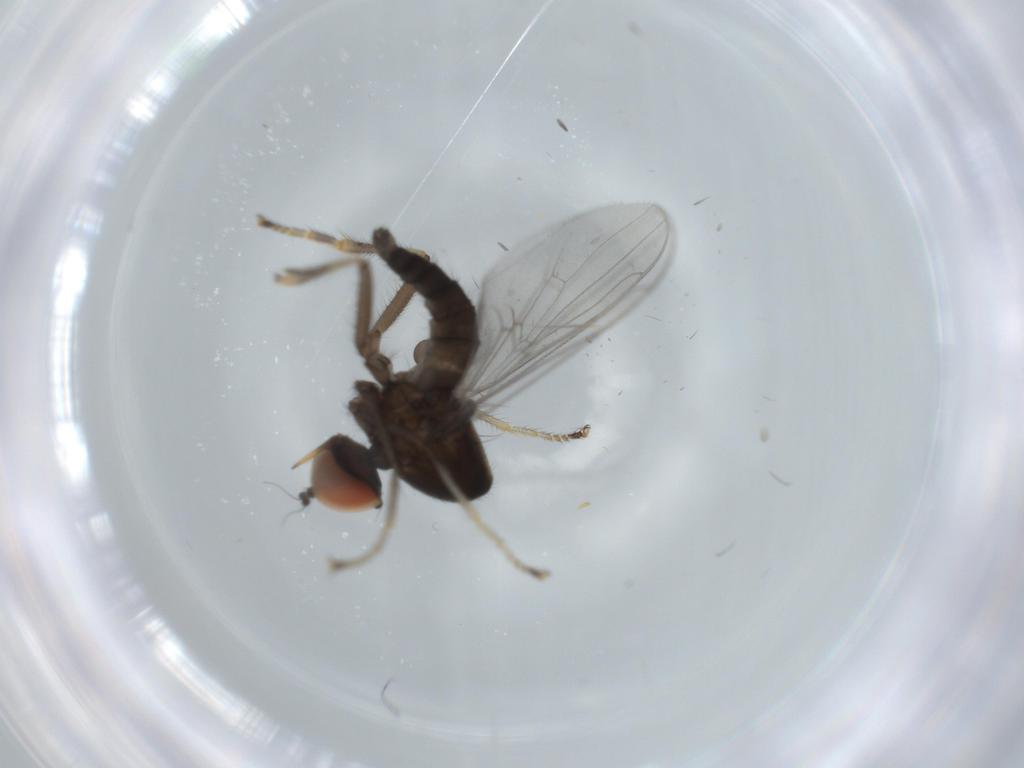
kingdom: Animalia
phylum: Arthropoda
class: Insecta
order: Diptera
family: Hybotidae
